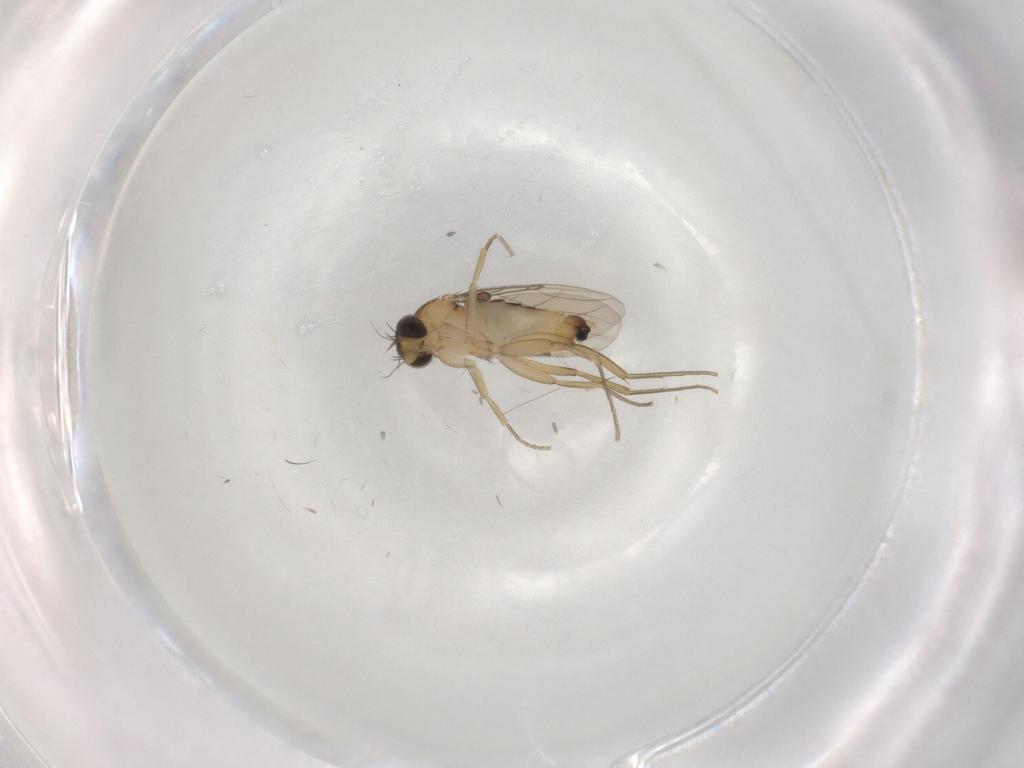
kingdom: Animalia
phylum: Arthropoda
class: Insecta
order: Diptera
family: Phoridae
